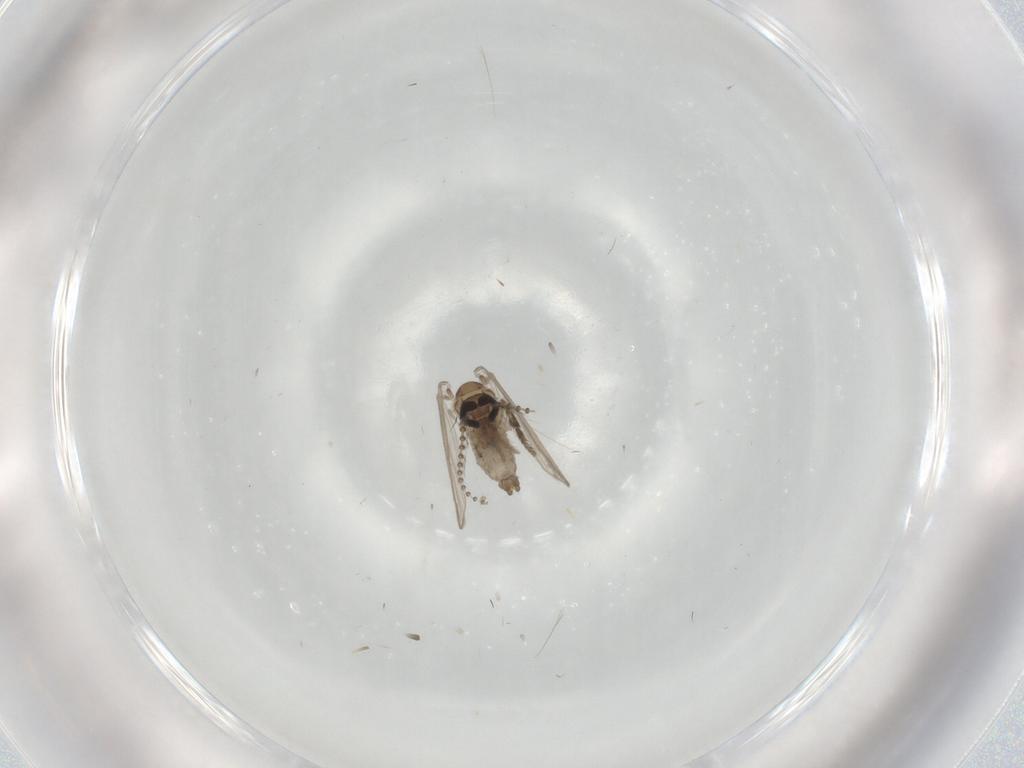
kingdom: Animalia
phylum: Arthropoda
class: Insecta
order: Diptera
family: Psychodidae
